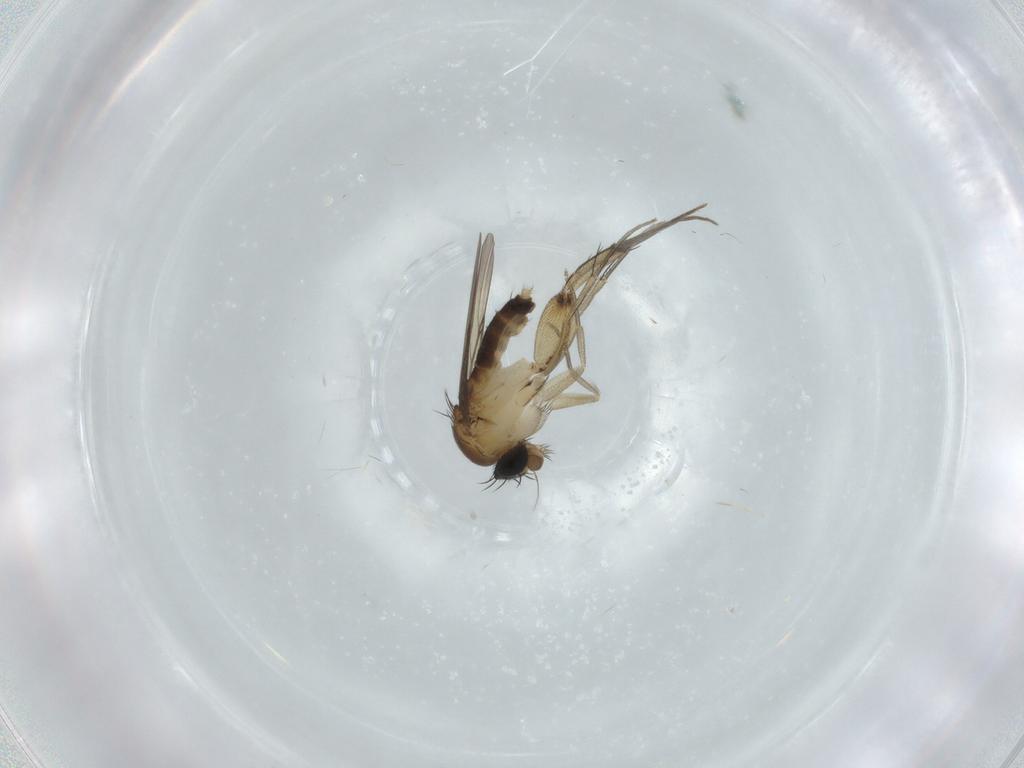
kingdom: Animalia
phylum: Arthropoda
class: Insecta
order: Diptera
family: Phoridae
